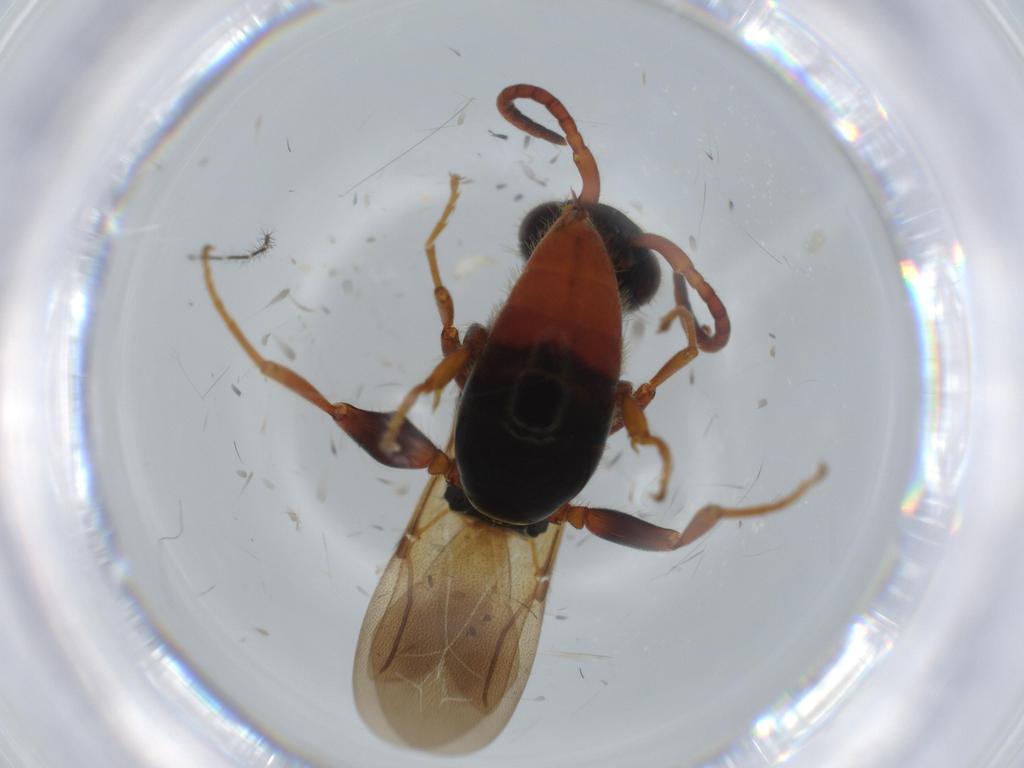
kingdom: Animalia
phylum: Arthropoda
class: Insecta
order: Hymenoptera
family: Bethylidae
